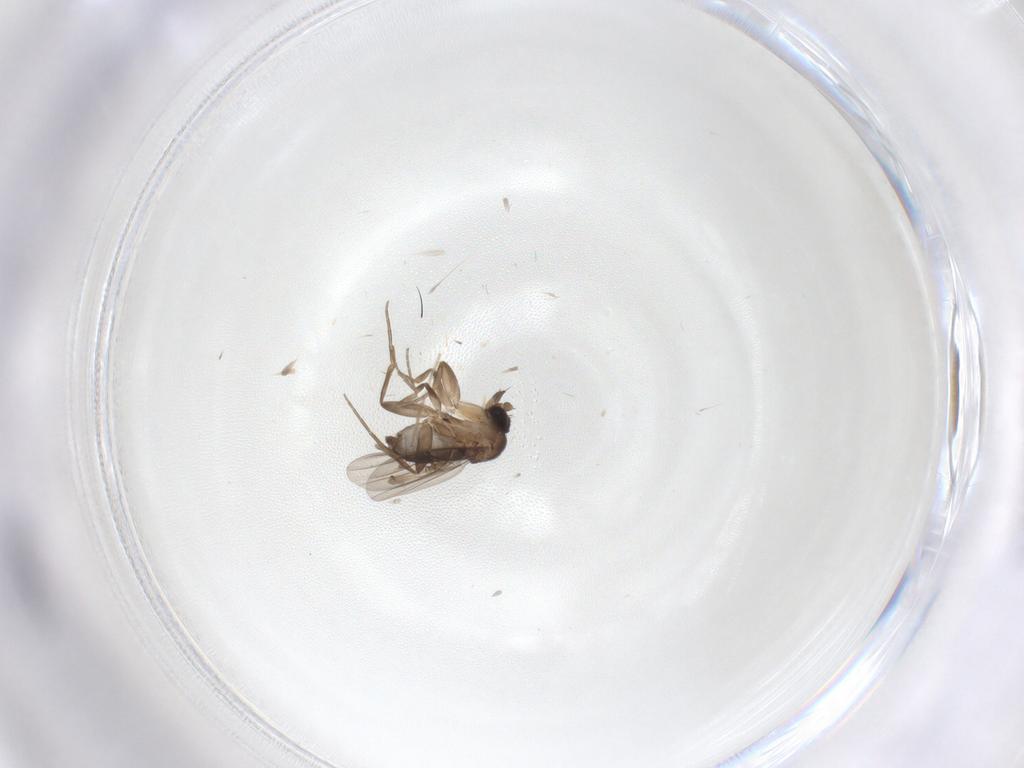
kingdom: Animalia
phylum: Arthropoda
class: Insecta
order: Diptera
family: Phoridae
